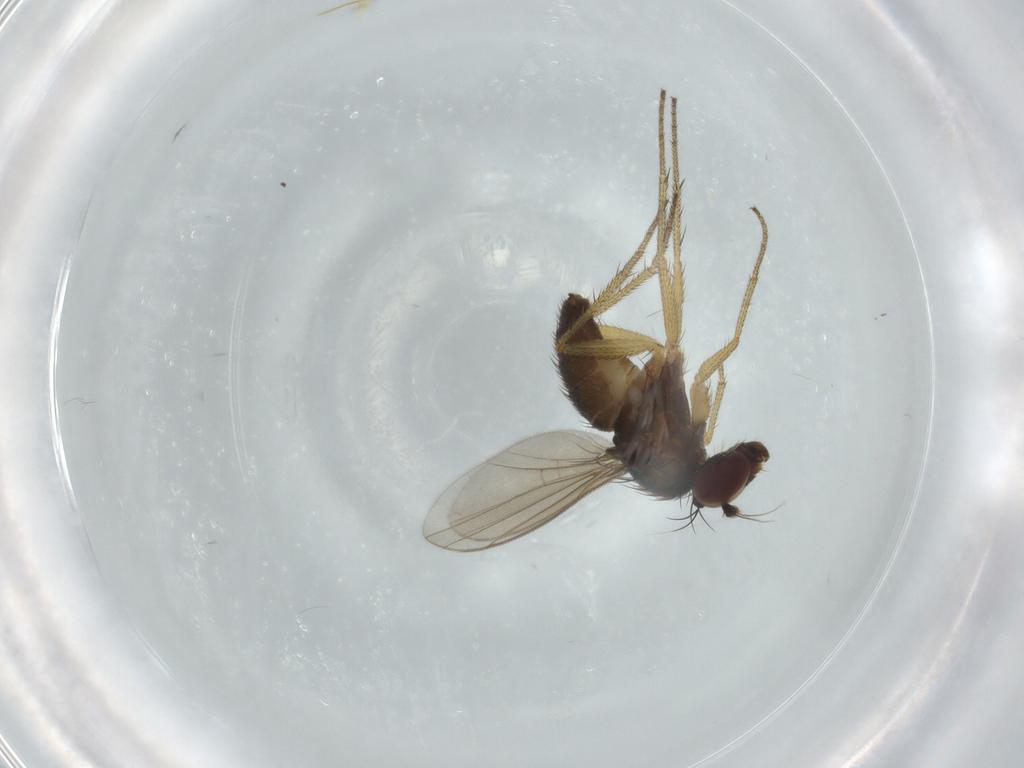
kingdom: Animalia
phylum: Arthropoda
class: Insecta
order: Diptera
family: Dolichopodidae
